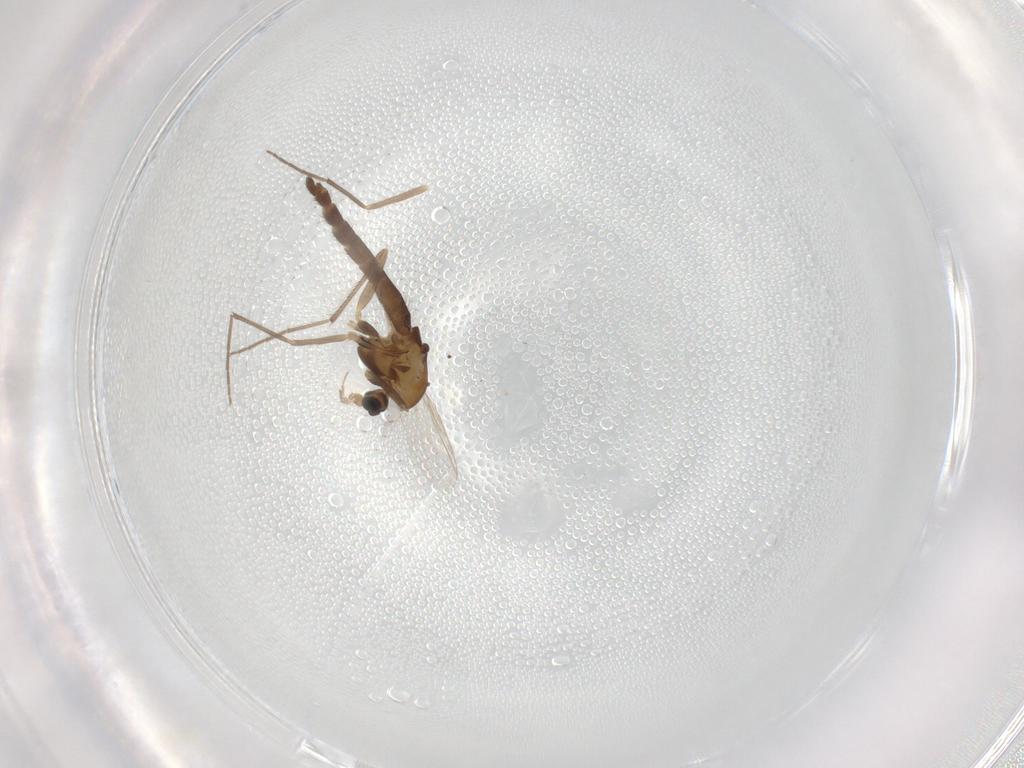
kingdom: Animalia
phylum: Arthropoda
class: Insecta
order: Diptera
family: Chironomidae
